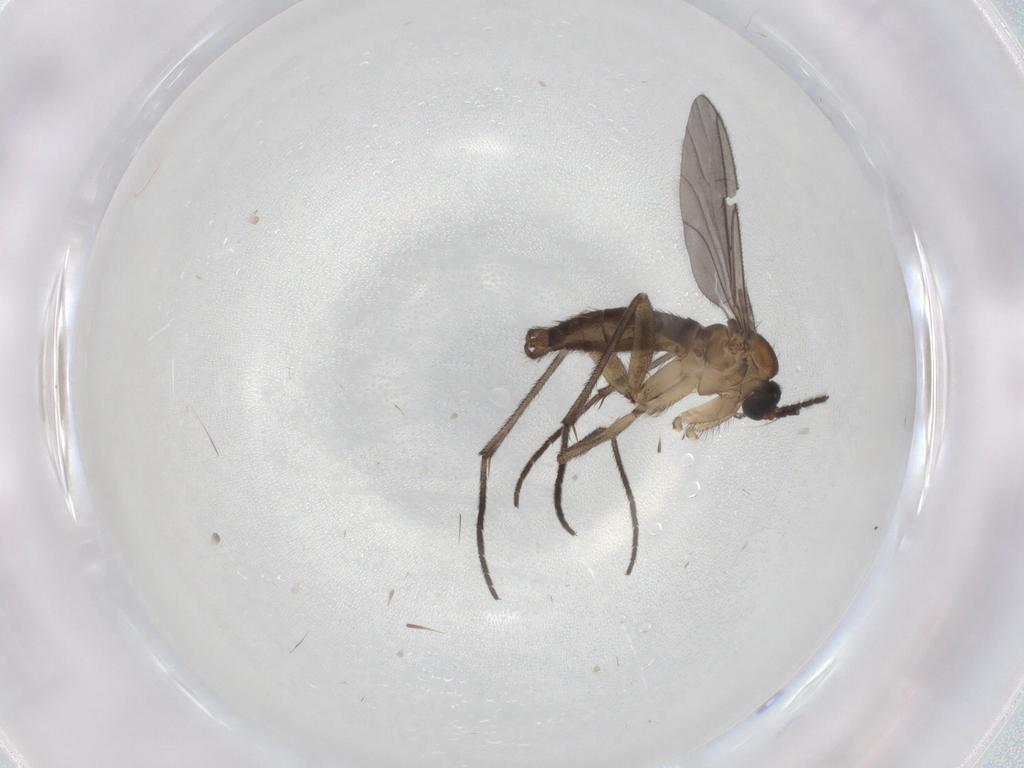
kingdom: Animalia
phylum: Arthropoda
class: Insecta
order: Diptera
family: Sciaridae
